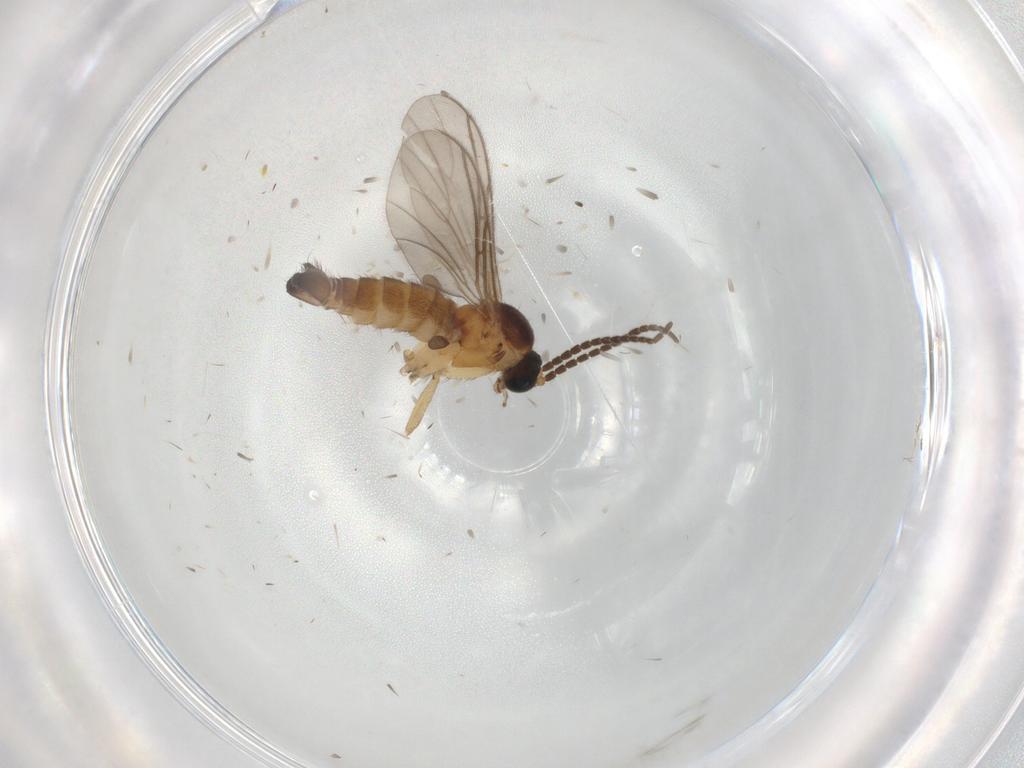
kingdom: Animalia
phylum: Arthropoda
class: Insecta
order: Diptera
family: Sciaridae
